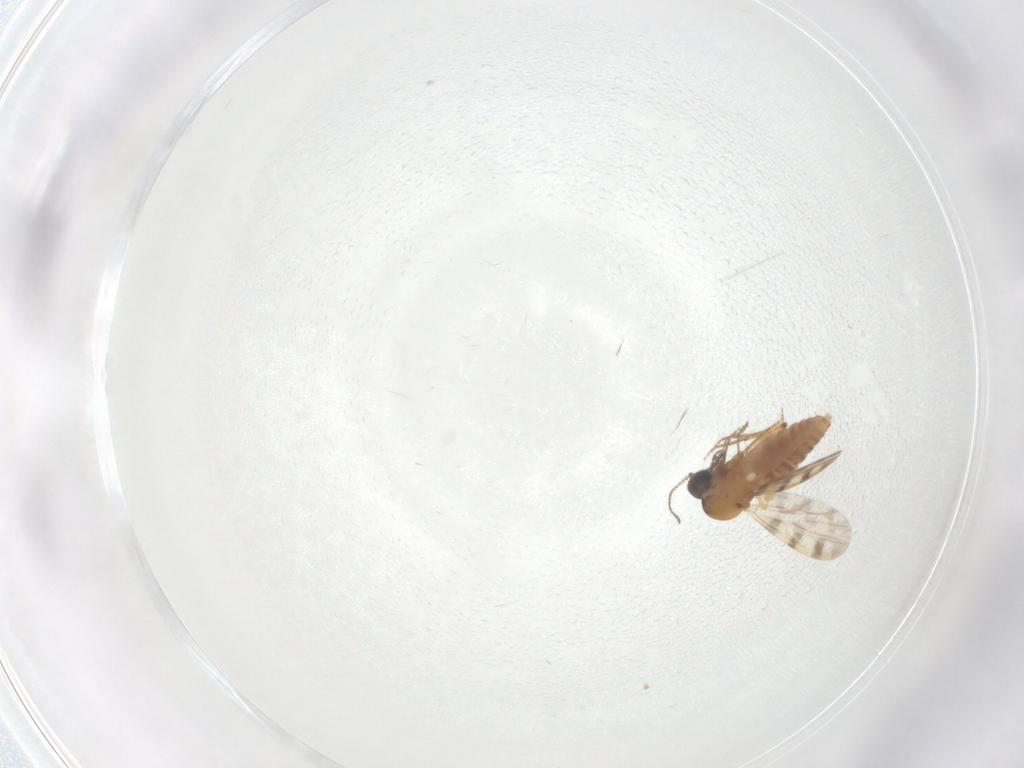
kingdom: Animalia
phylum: Arthropoda
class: Insecta
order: Diptera
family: Ceratopogonidae
